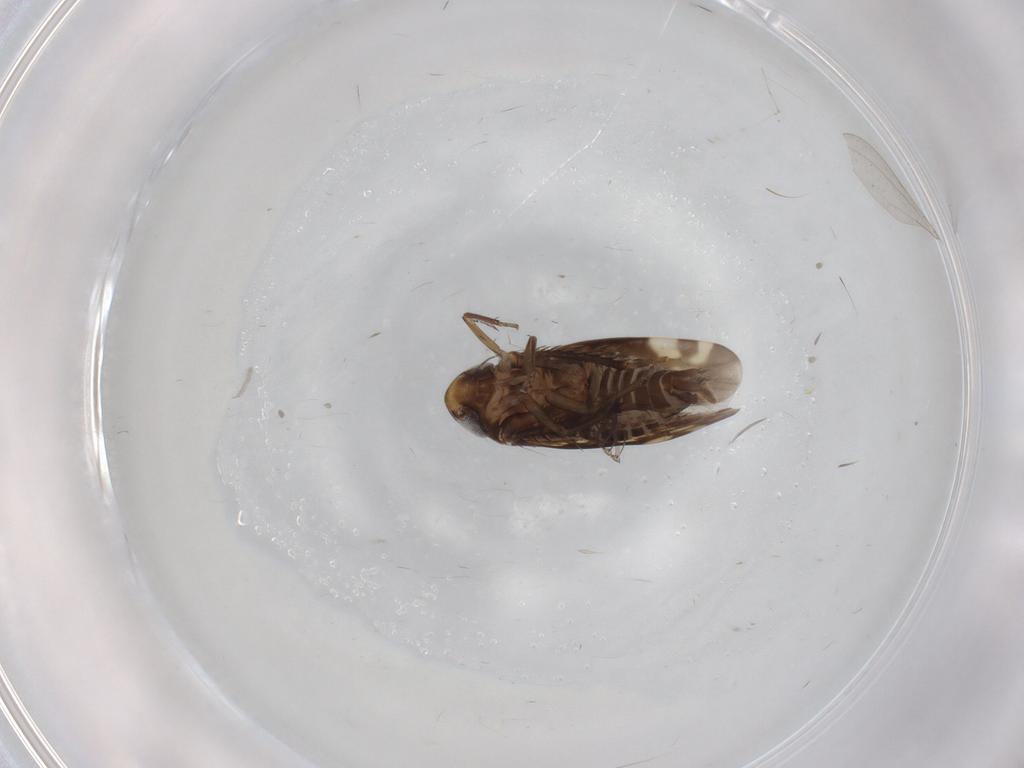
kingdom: Animalia
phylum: Arthropoda
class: Insecta
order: Hemiptera
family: Cicadellidae
